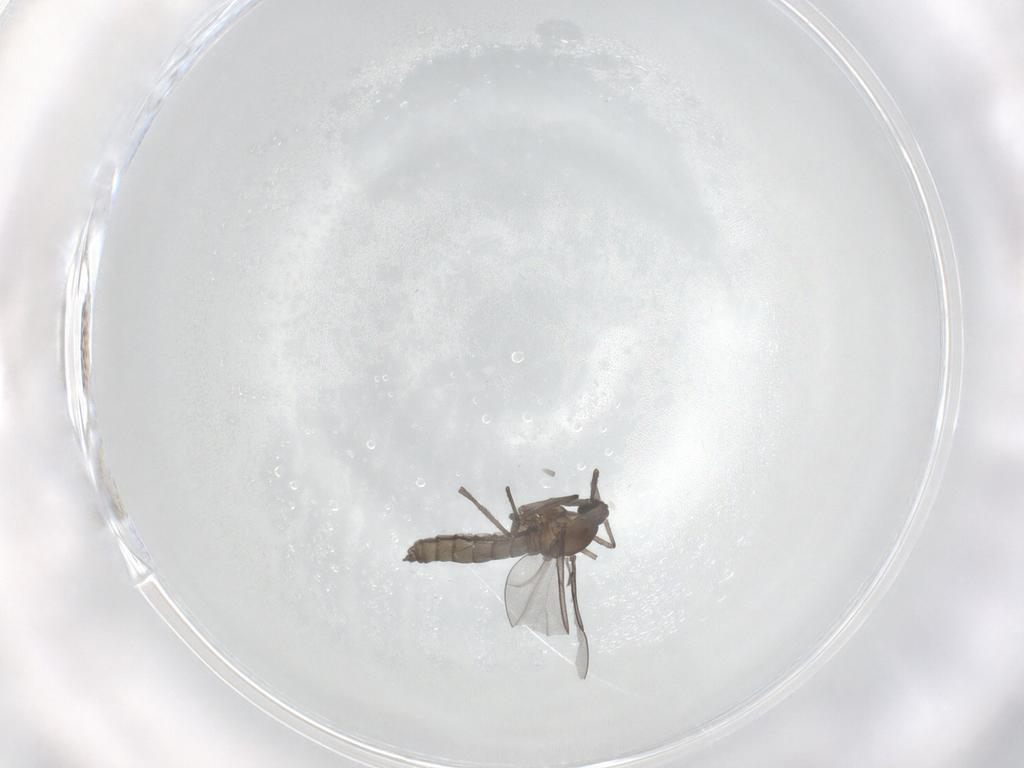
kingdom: Animalia
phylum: Arthropoda
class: Insecta
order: Diptera
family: Cecidomyiidae
